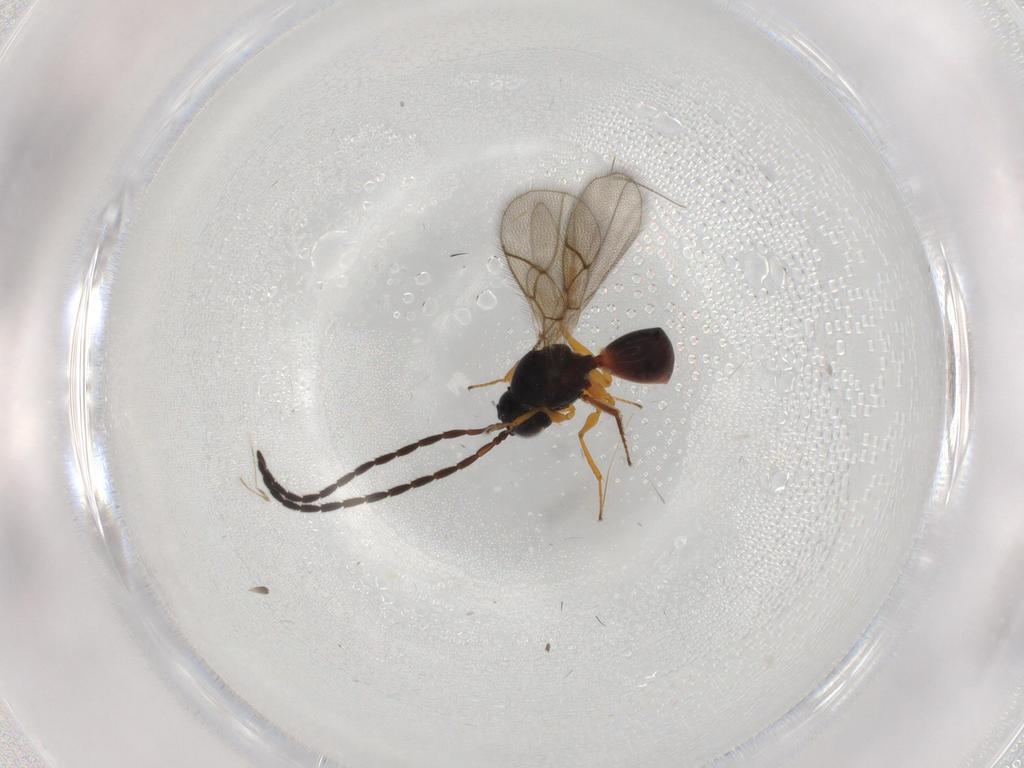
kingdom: Animalia
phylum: Arthropoda
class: Insecta
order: Hymenoptera
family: Figitidae
